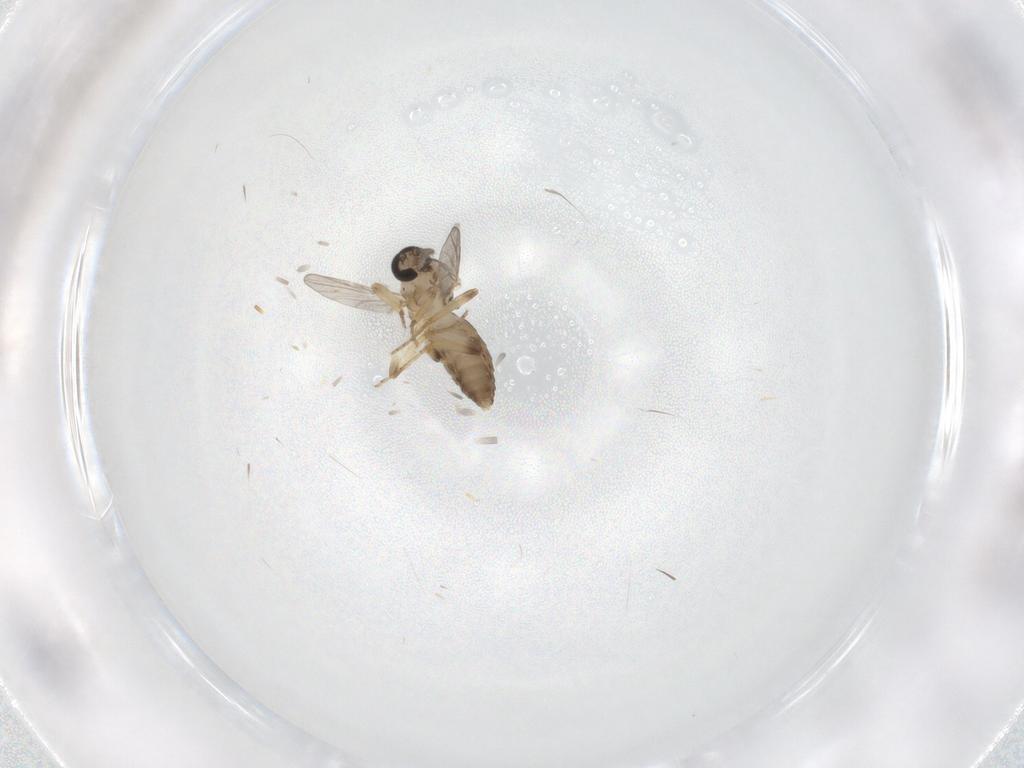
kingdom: Animalia
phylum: Arthropoda
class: Insecta
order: Diptera
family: Ceratopogonidae
